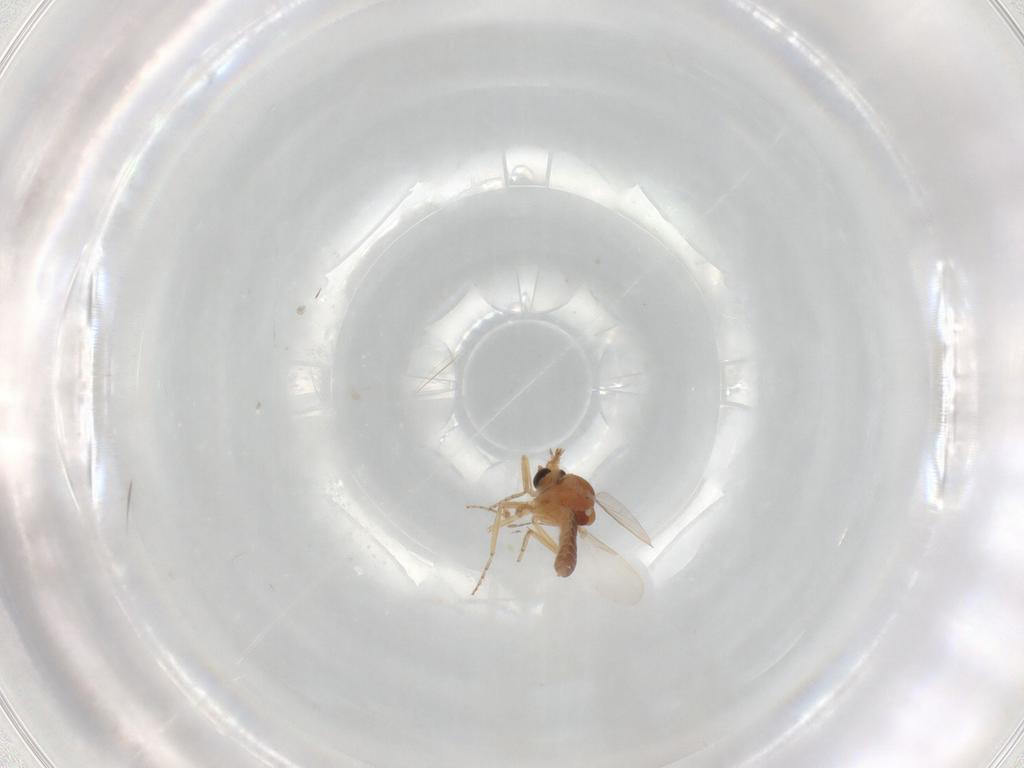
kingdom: Animalia
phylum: Arthropoda
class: Insecta
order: Diptera
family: Ceratopogonidae
